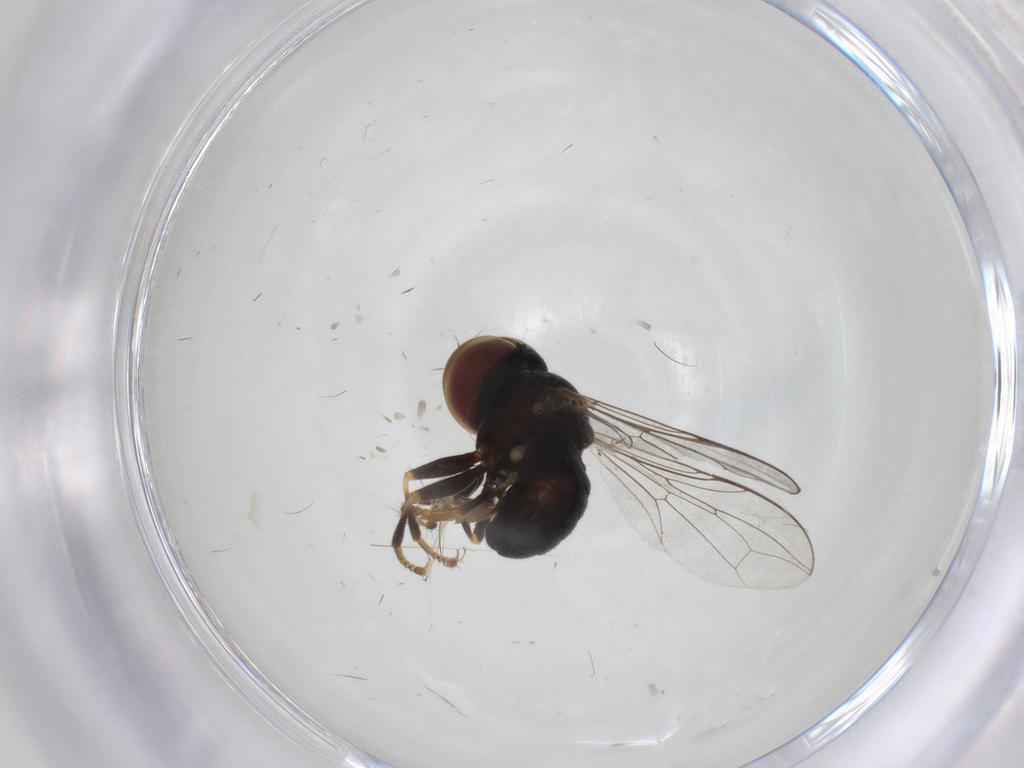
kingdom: Animalia
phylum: Arthropoda
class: Insecta
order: Diptera
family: Pipunculidae
